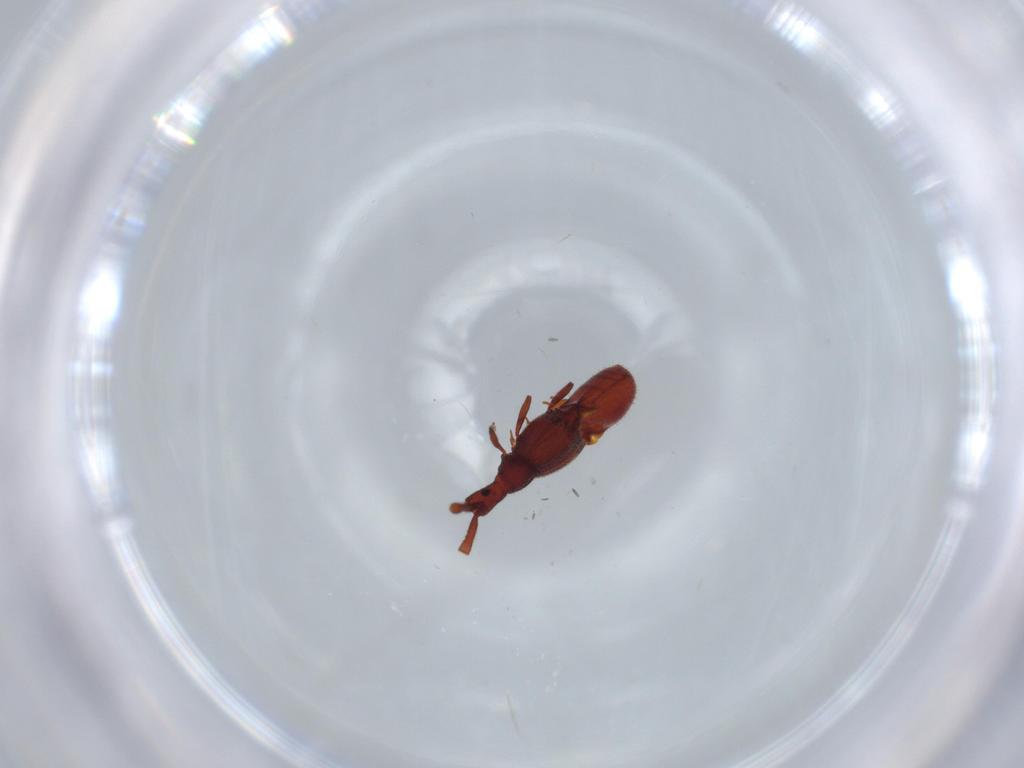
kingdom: Animalia
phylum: Arthropoda
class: Insecta
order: Coleoptera
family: Staphylinidae
